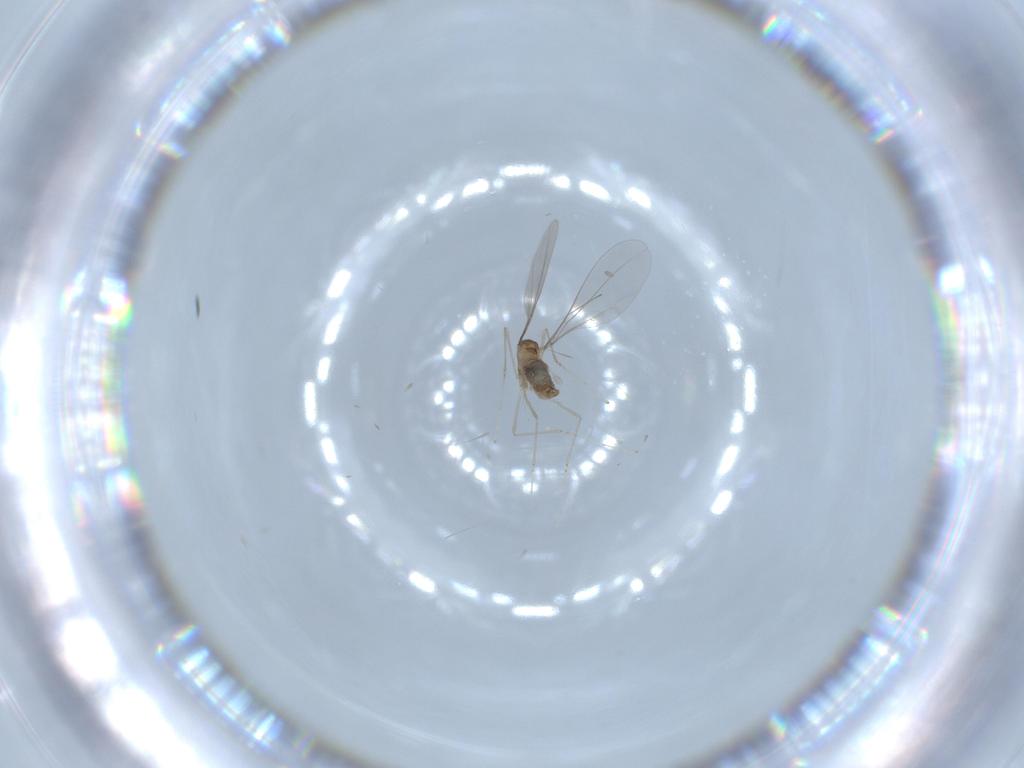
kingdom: Animalia
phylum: Arthropoda
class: Insecta
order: Diptera
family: Cecidomyiidae
